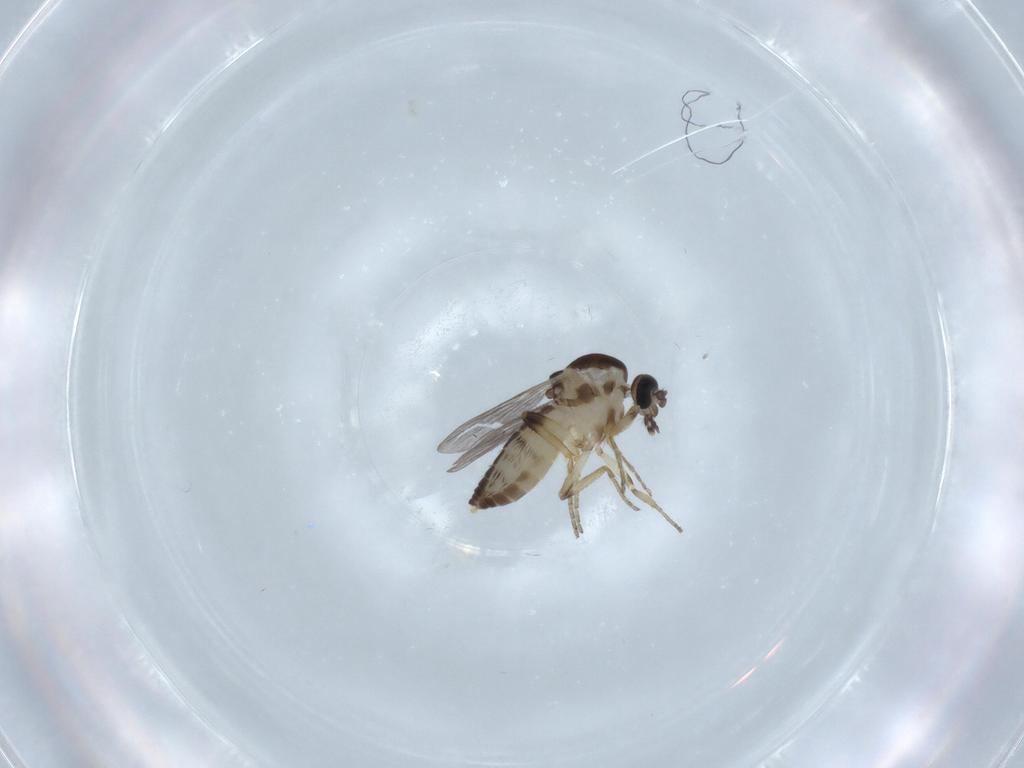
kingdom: Animalia
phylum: Arthropoda
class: Insecta
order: Diptera
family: Ceratopogonidae
